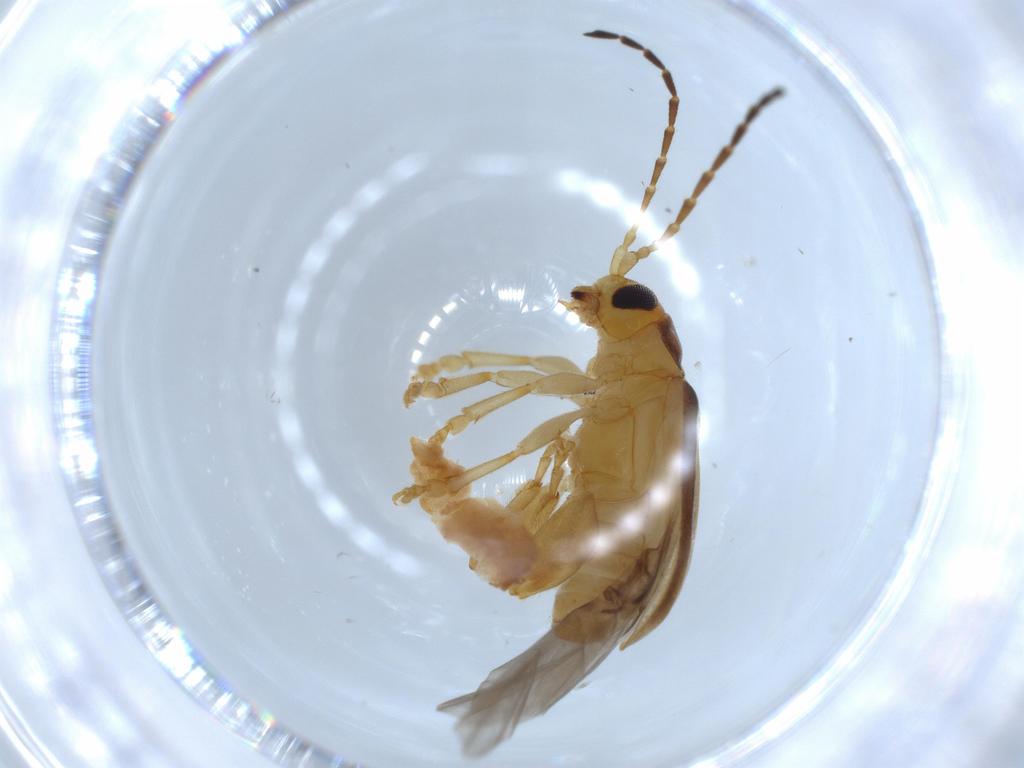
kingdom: Animalia
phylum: Arthropoda
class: Insecta
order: Coleoptera
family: Chrysomelidae
